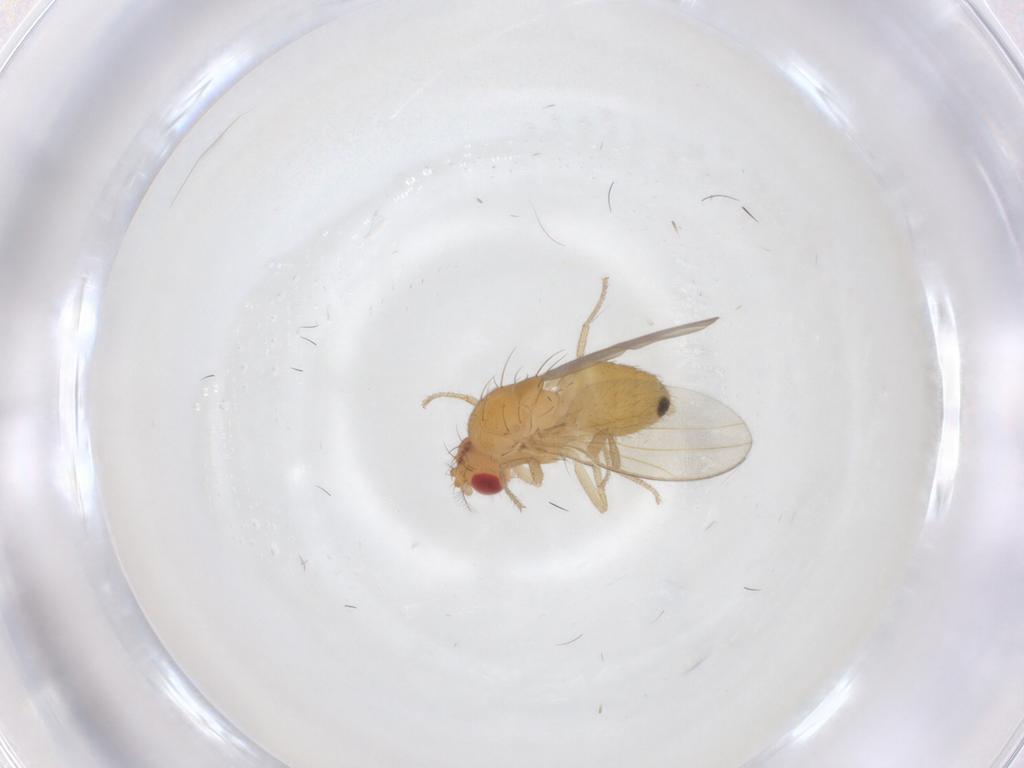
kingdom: Animalia
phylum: Arthropoda
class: Insecta
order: Diptera
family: Drosophilidae
